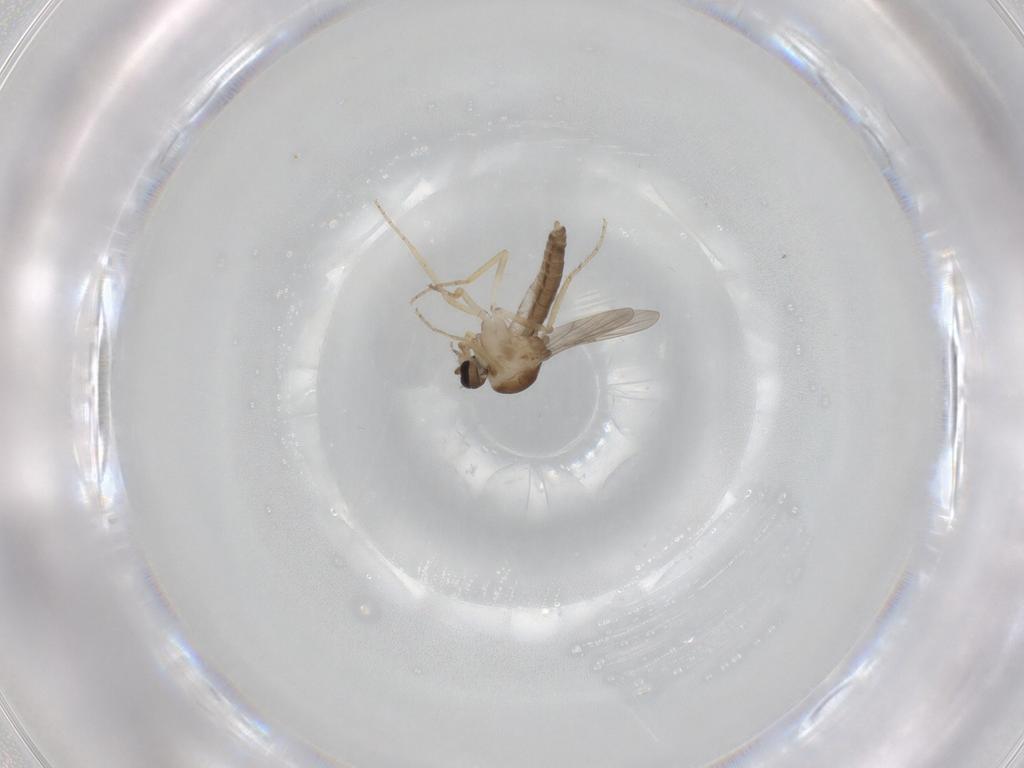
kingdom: Animalia
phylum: Arthropoda
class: Insecta
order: Diptera
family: Ceratopogonidae
